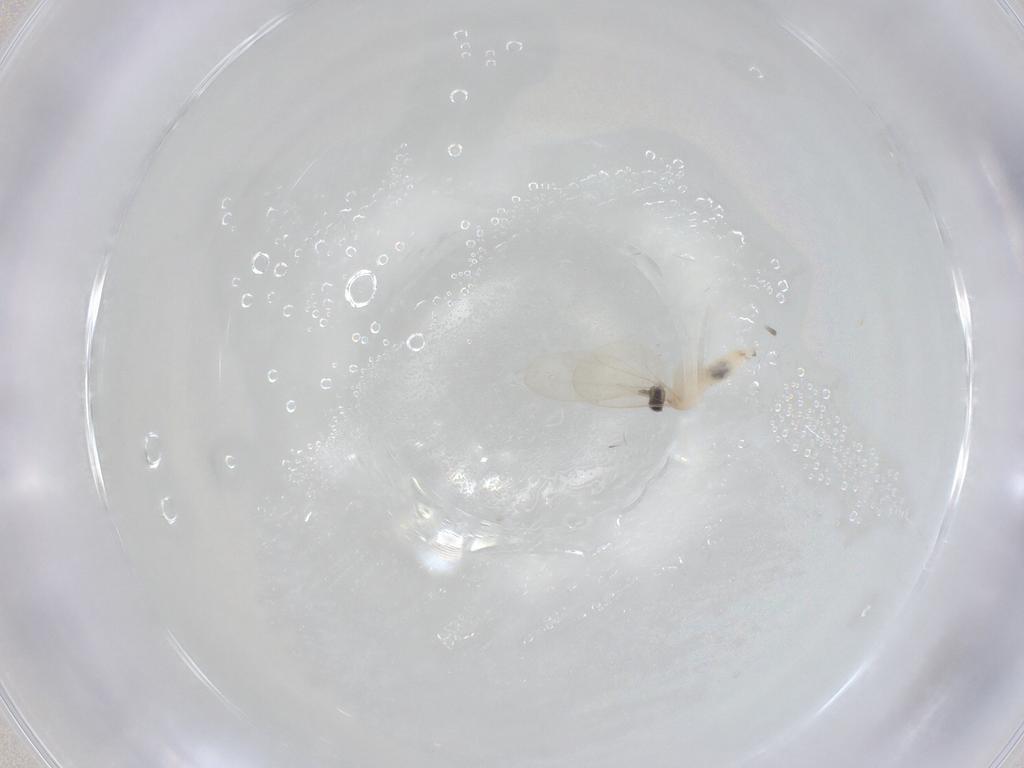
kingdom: Animalia
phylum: Arthropoda
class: Insecta
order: Diptera
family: Cecidomyiidae
